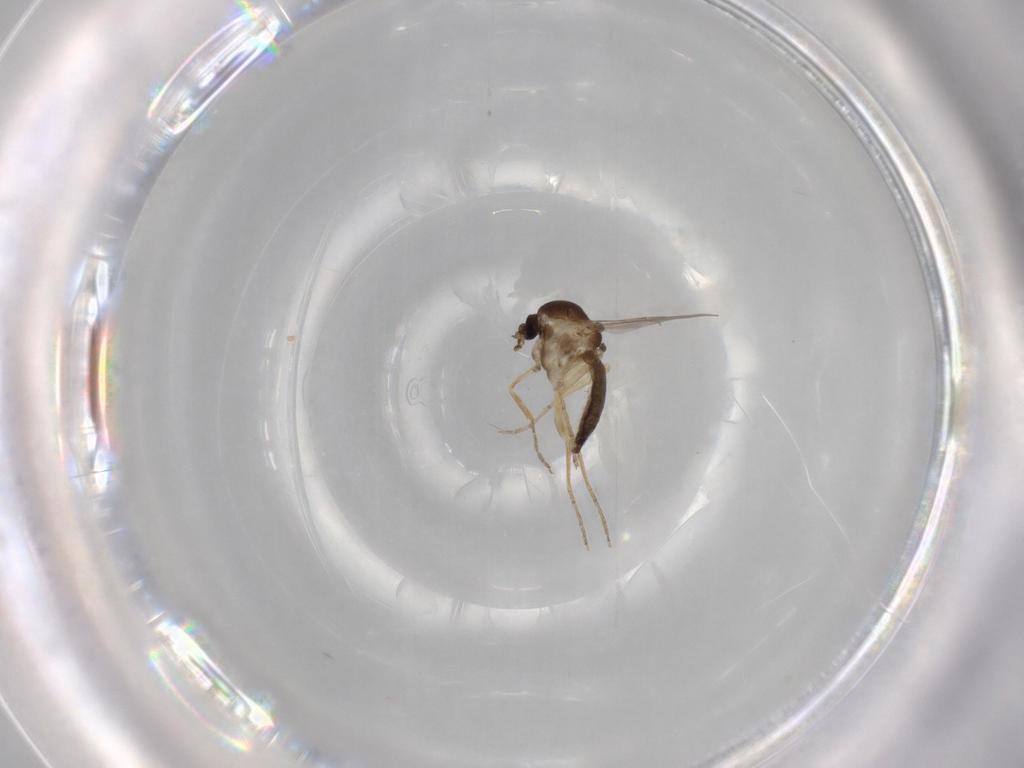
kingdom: Animalia
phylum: Arthropoda
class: Insecta
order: Diptera
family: Ceratopogonidae
